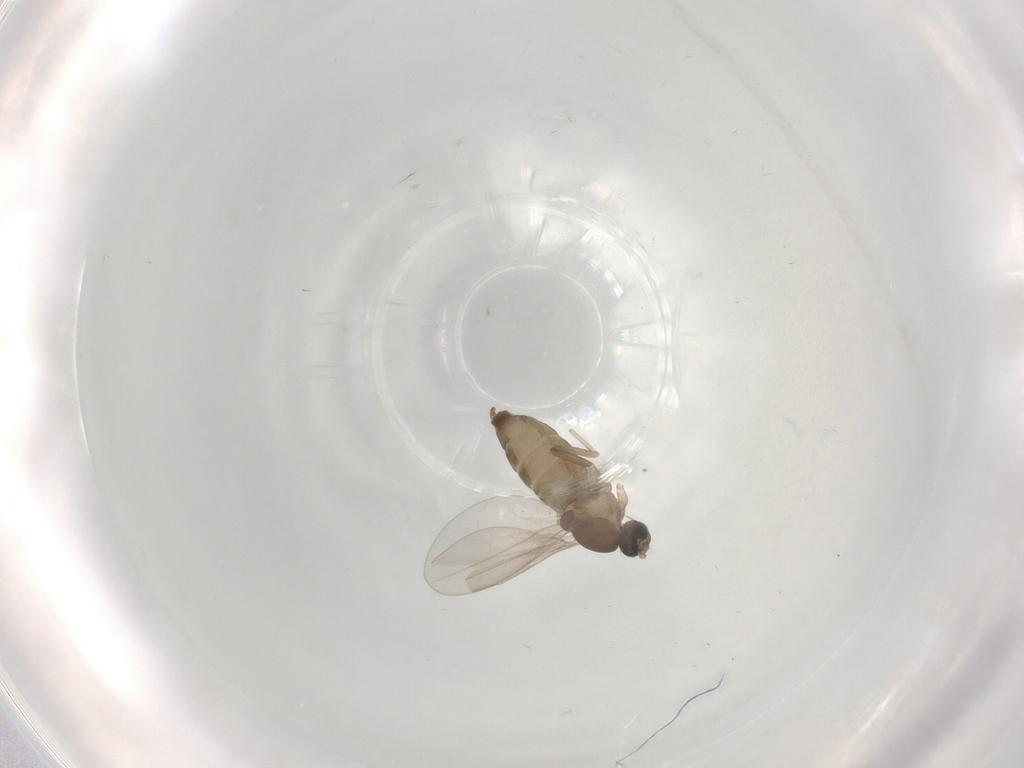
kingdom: Animalia
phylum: Arthropoda
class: Insecta
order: Diptera
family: Cecidomyiidae
